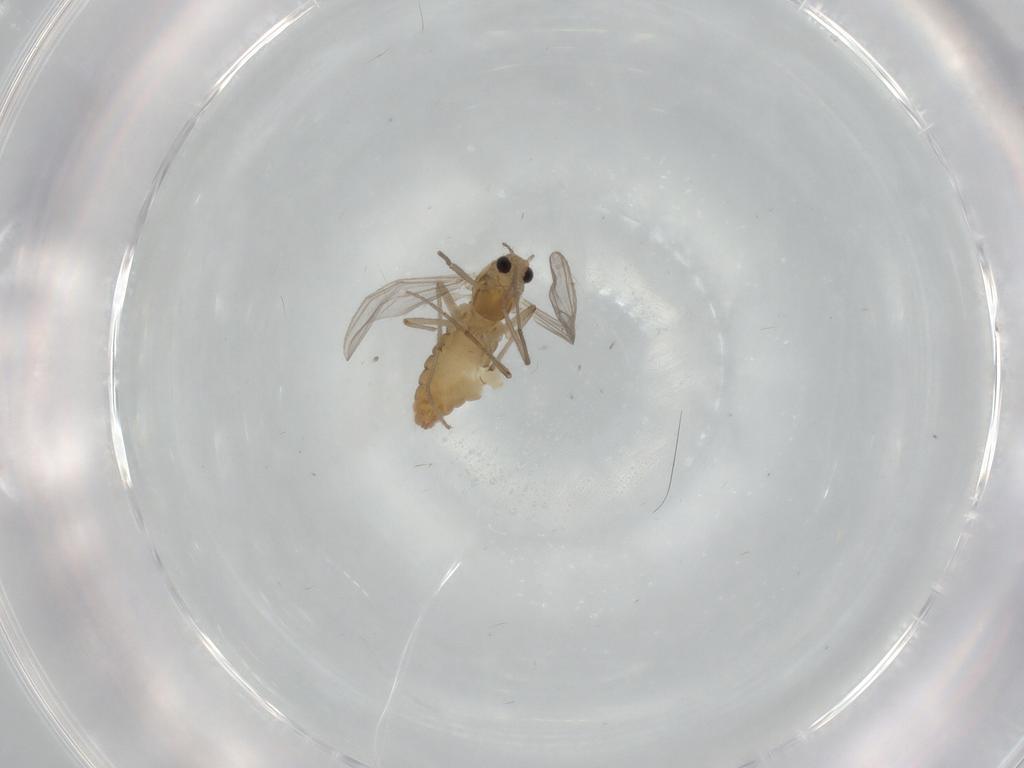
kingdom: Animalia
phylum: Arthropoda
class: Insecta
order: Diptera
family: Chironomidae
